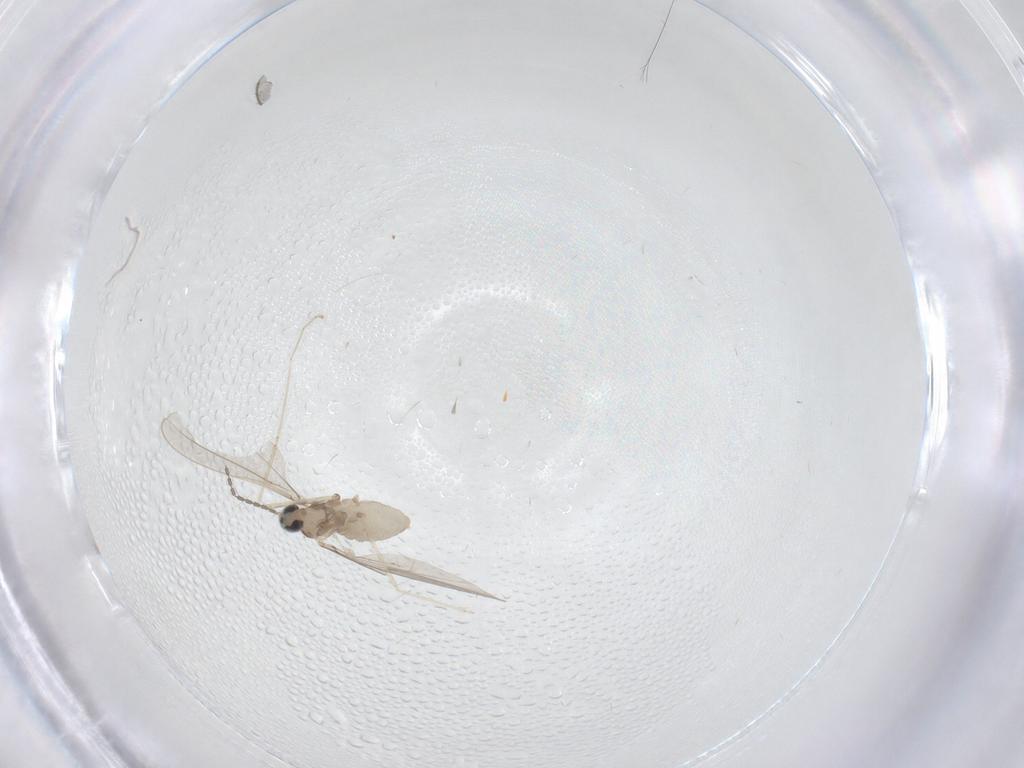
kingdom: Animalia
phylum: Arthropoda
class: Insecta
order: Diptera
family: Cecidomyiidae
